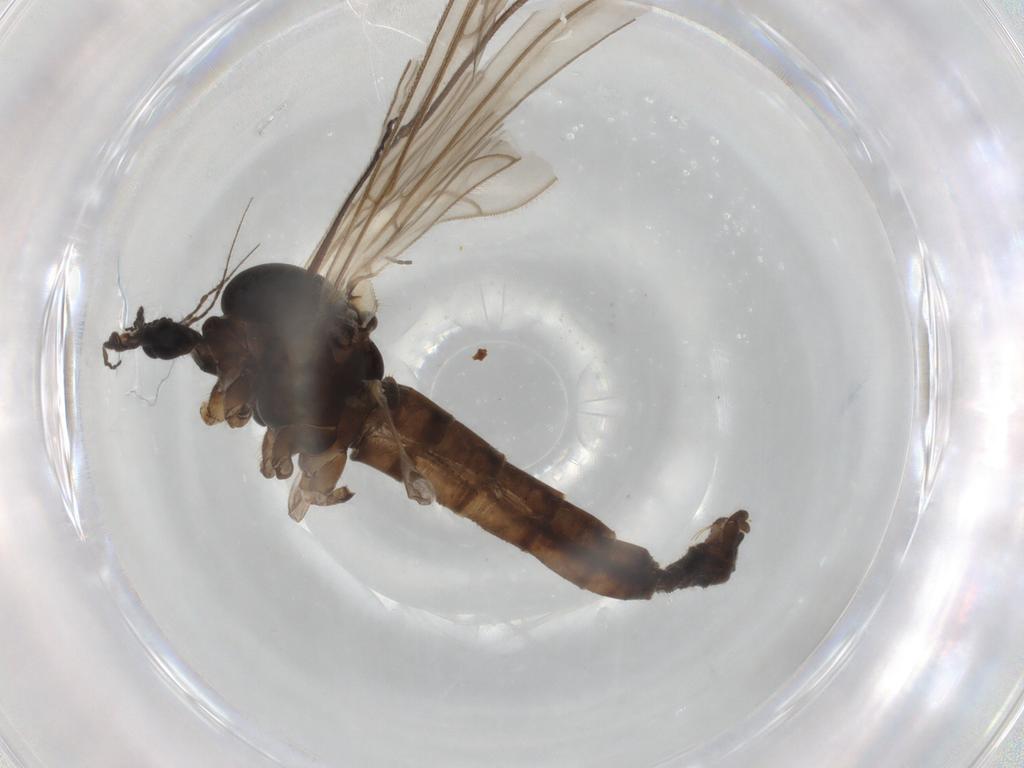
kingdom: Animalia
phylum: Arthropoda
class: Insecta
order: Diptera
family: Trichoceridae
